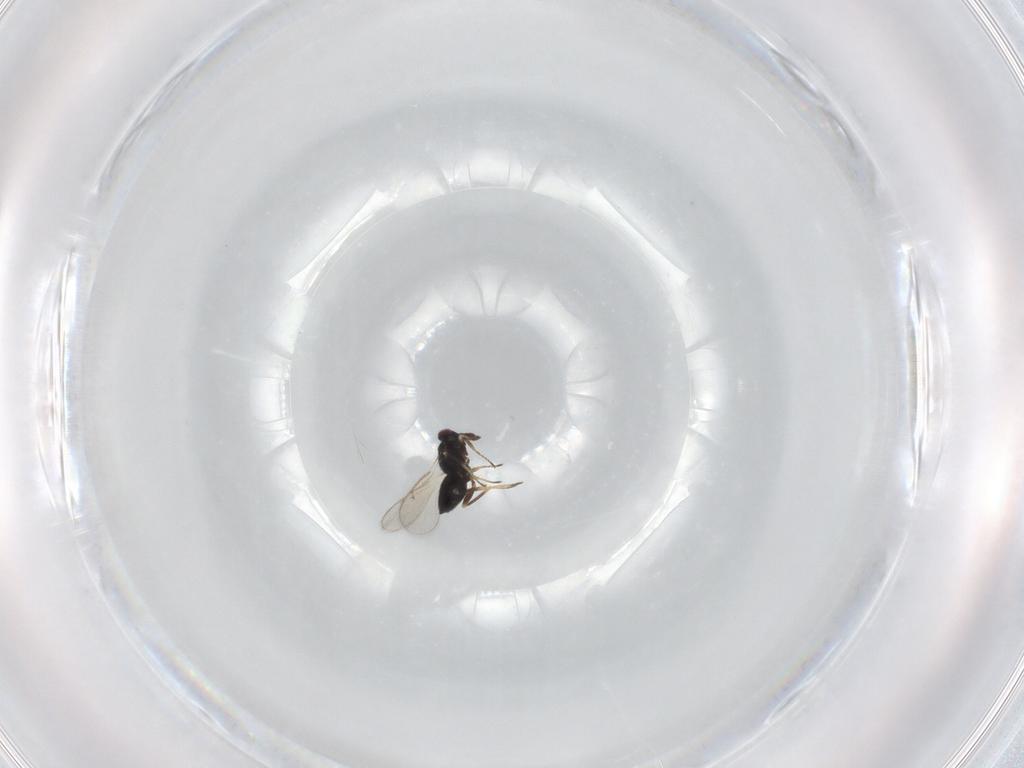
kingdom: Animalia
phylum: Arthropoda
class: Insecta
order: Hymenoptera
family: Tetracampidae
